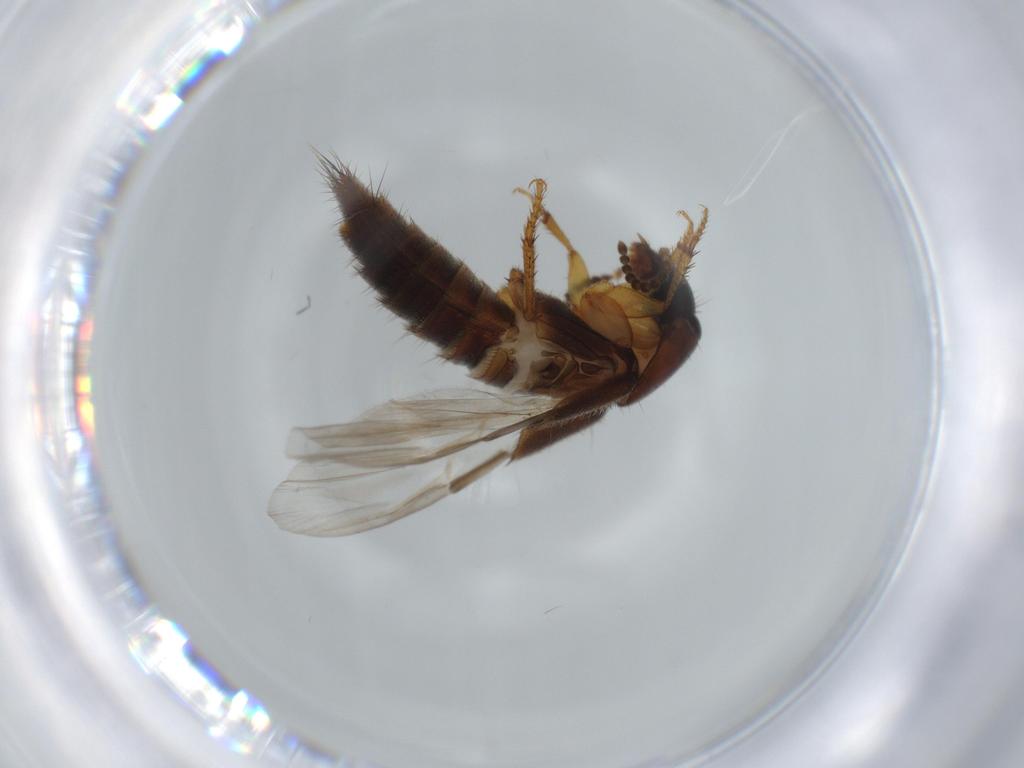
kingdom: Animalia
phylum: Arthropoda
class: Insecta
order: Coleoptera
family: Staphylinidae
